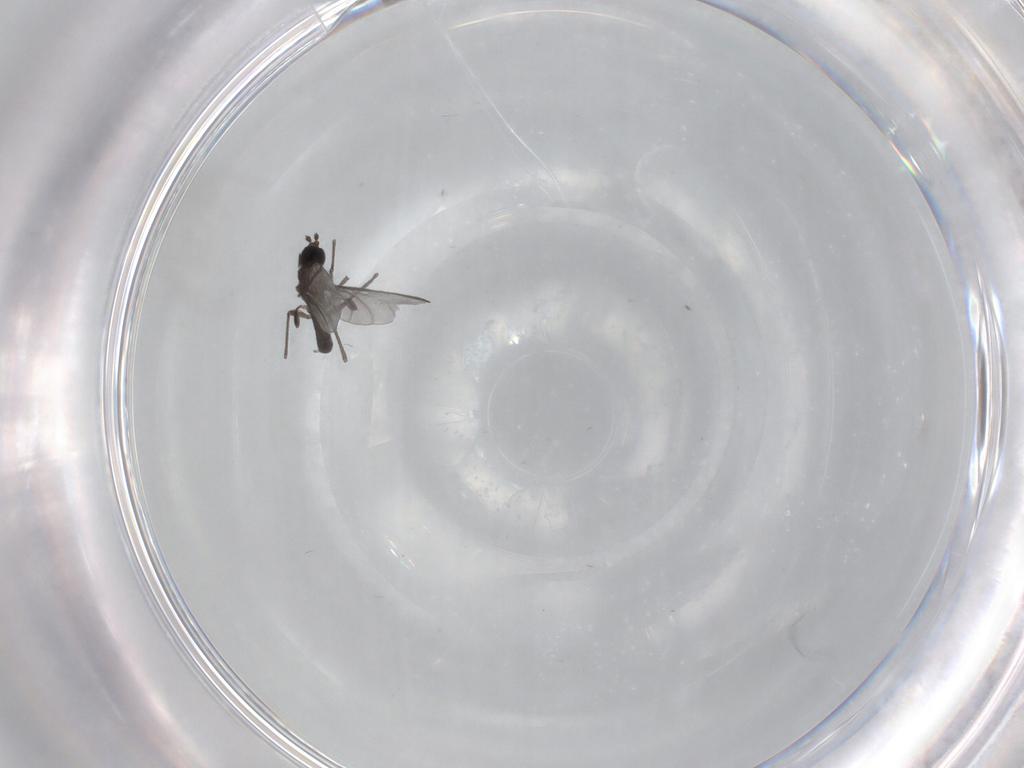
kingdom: Animalia
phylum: Arthropoda
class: Insecta
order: Diptera
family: Sciaridae
